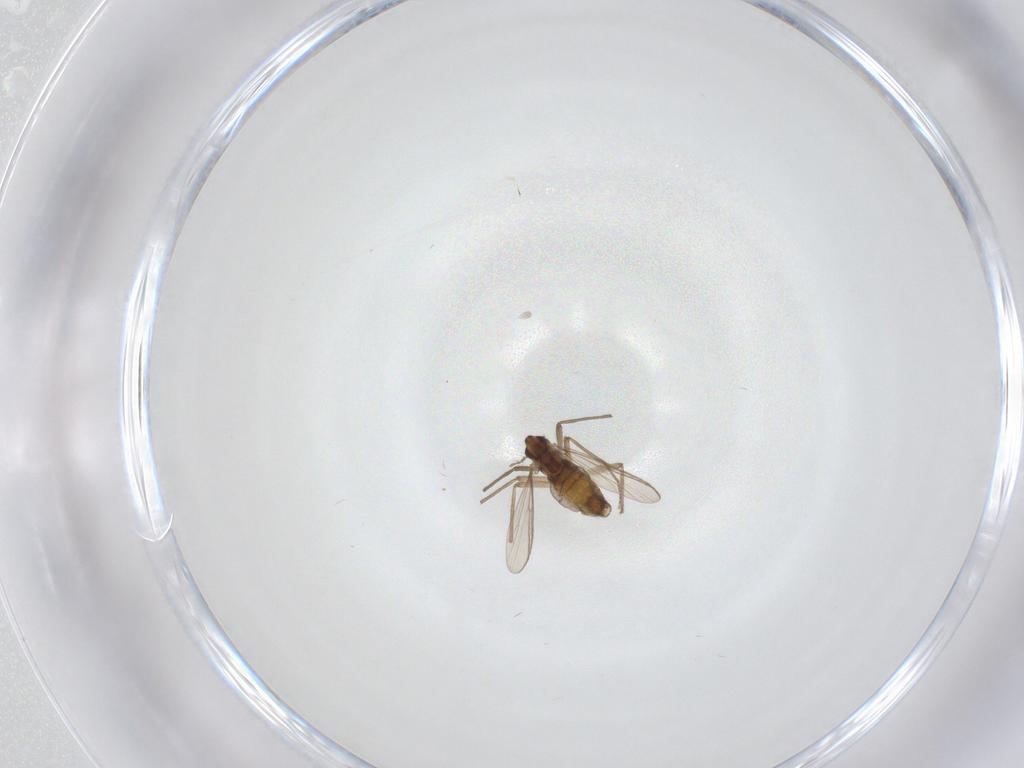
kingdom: Animalia
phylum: Arthropoda
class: Insecta
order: Diptera
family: Chironomidae
